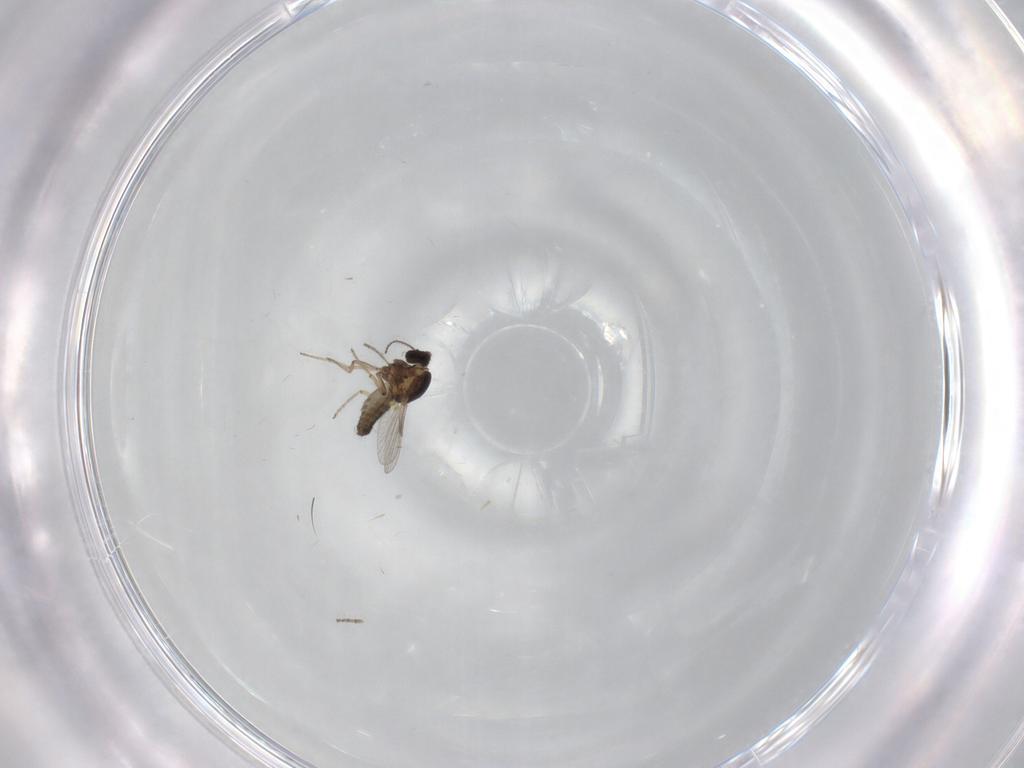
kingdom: Animalia
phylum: Arthropoda
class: Insecta
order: Diptera
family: Ceratopogonidae
